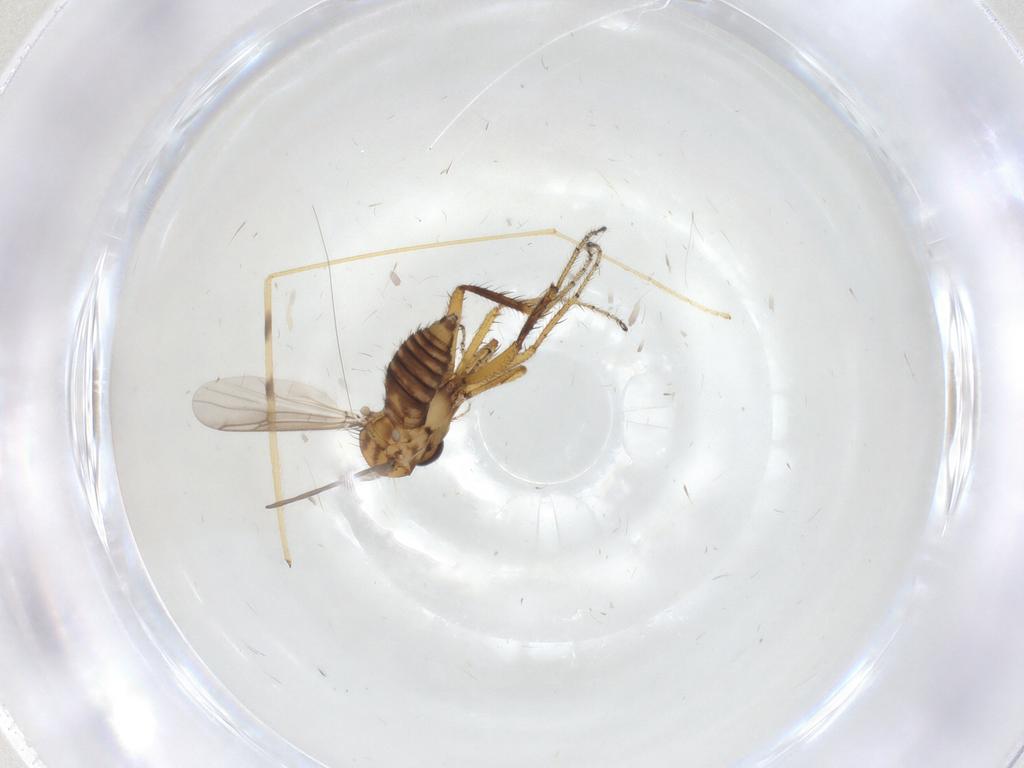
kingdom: Animalia
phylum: Arthropoda
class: Insecta
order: Diptera
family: Ceratopogonidae
